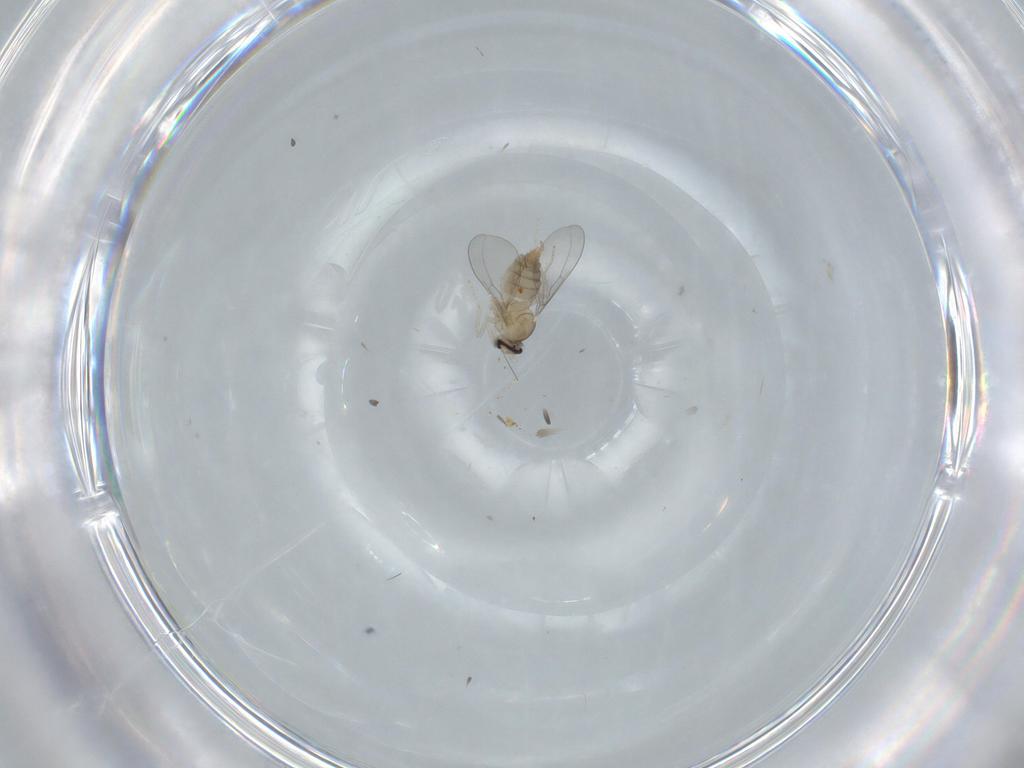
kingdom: Animalia
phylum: Arthropoda
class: Insecta
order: Diptera
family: Cecidomyiidae
